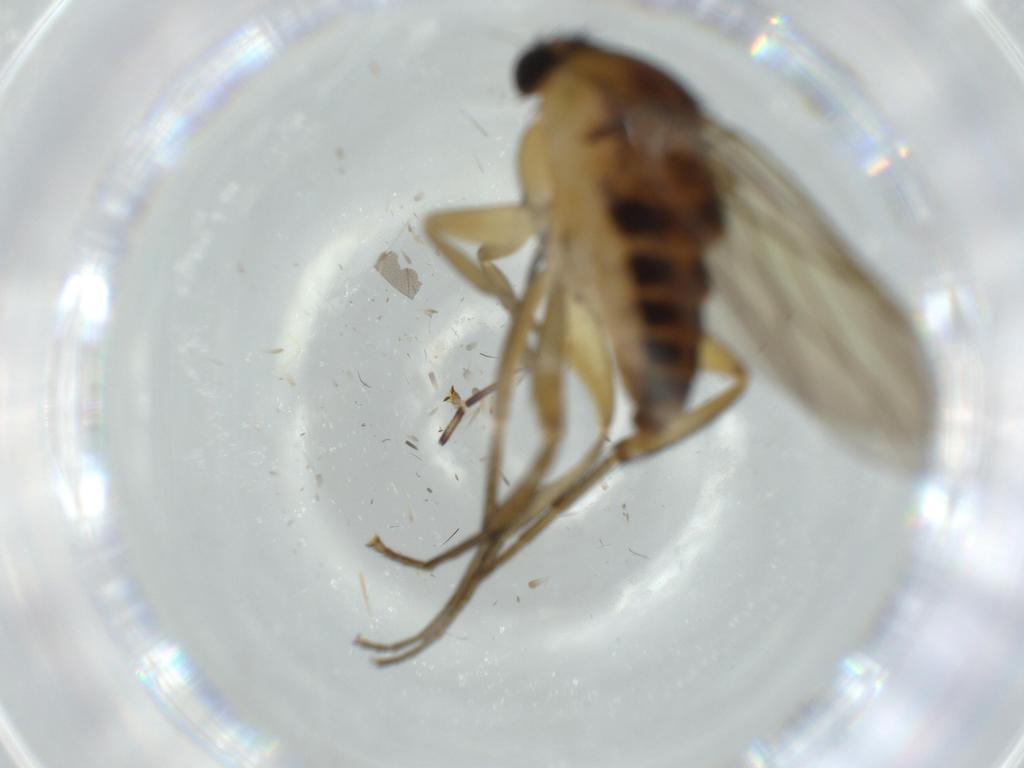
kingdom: Animalia
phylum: Arthropoda
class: Insecta
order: Diptera
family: Phoridae
